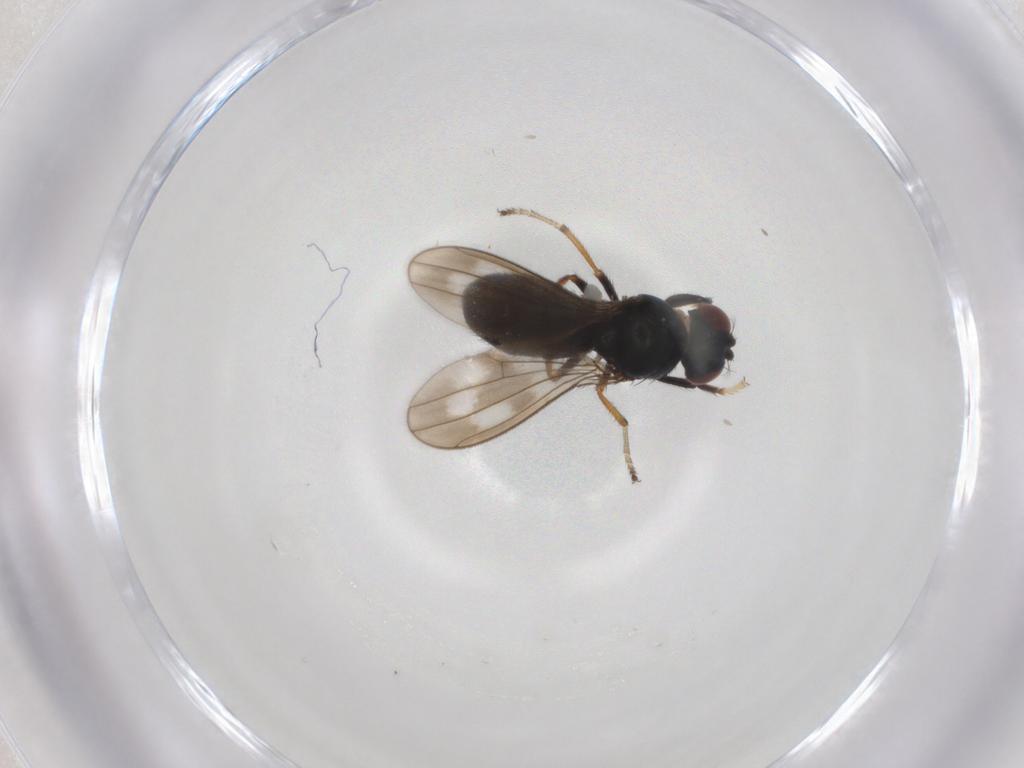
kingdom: Animalia
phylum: Arthropoda
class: Insecta
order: Diptera
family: Ephydridae
